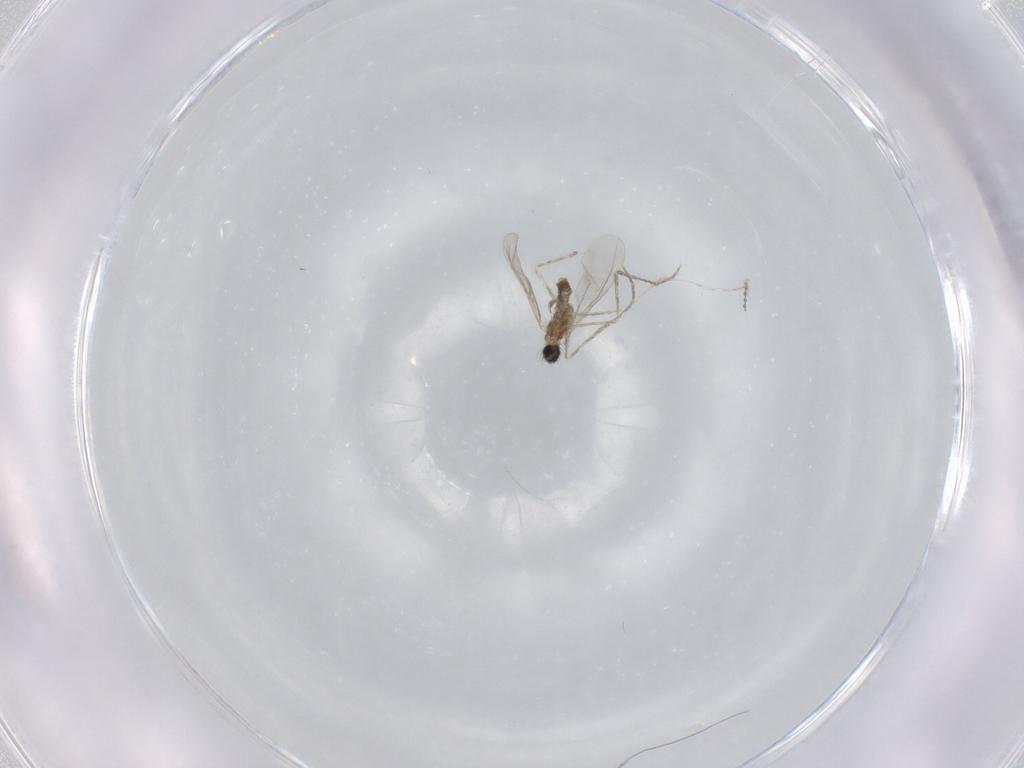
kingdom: Animalia
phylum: Arthropoda
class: Insecta
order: Diptera
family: Cecidomyiidae
